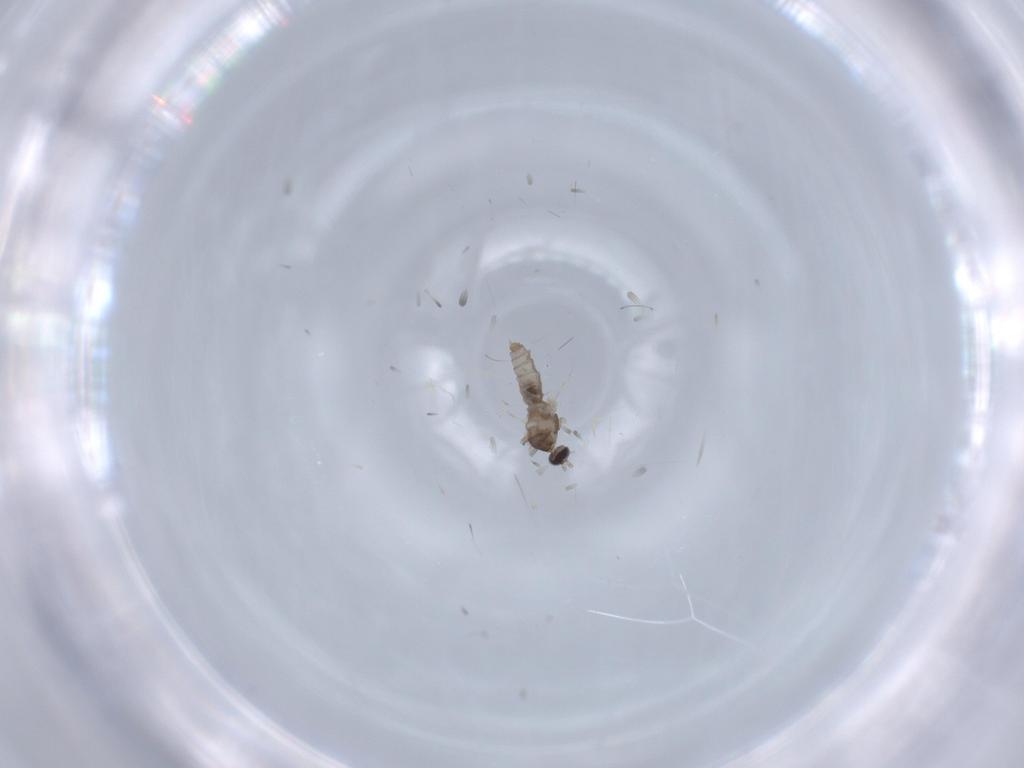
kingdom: Animalia
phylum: Arthropoda
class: Insecta
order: Diptera
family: Cecidomyiidae
